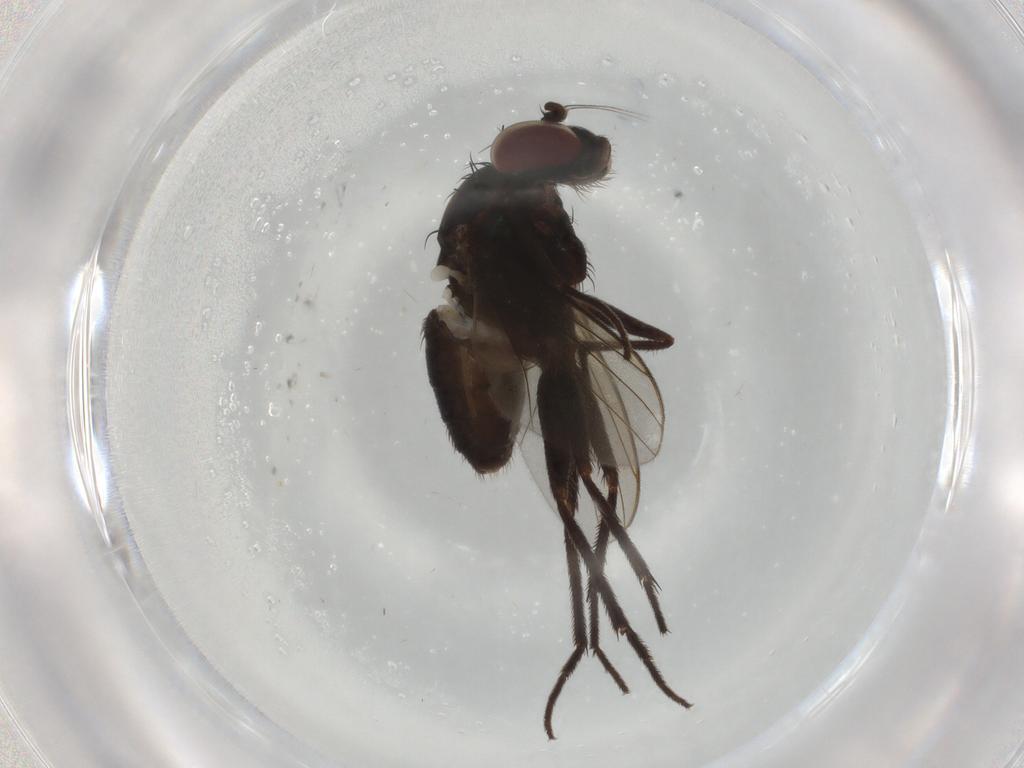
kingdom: Animalia
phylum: Arthropoda
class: Insecta
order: Diptera
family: Dolichopodidae
